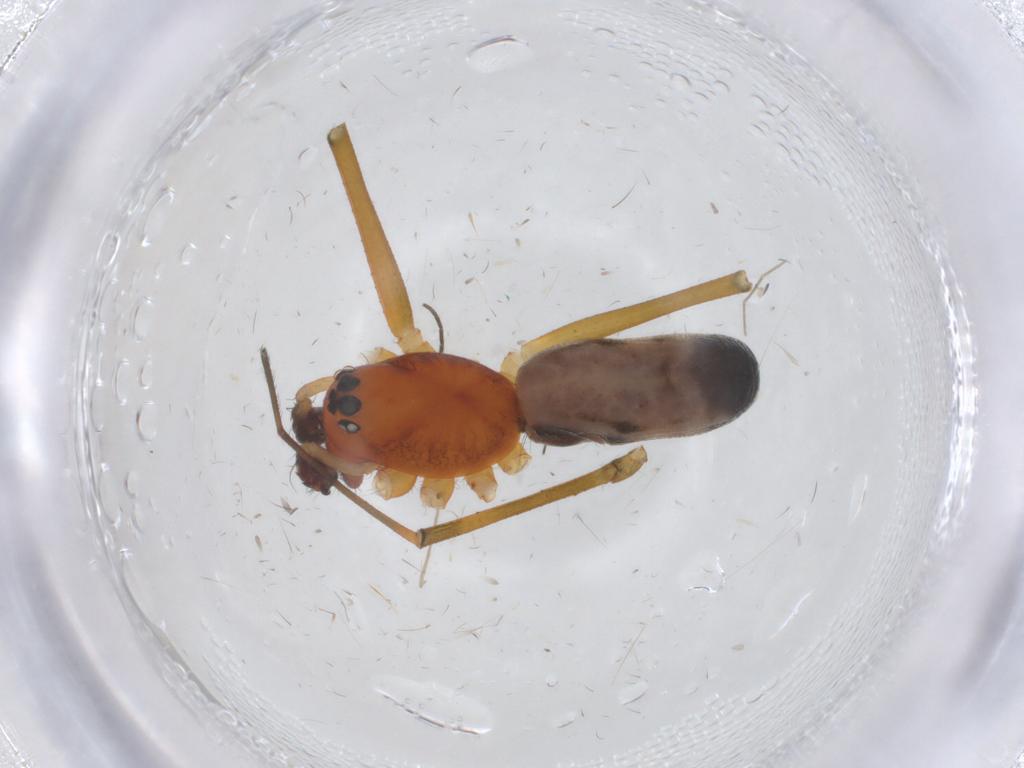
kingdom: Animalia
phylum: Arthropoda
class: Arachnida
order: Araneae
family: Linyphiidae
